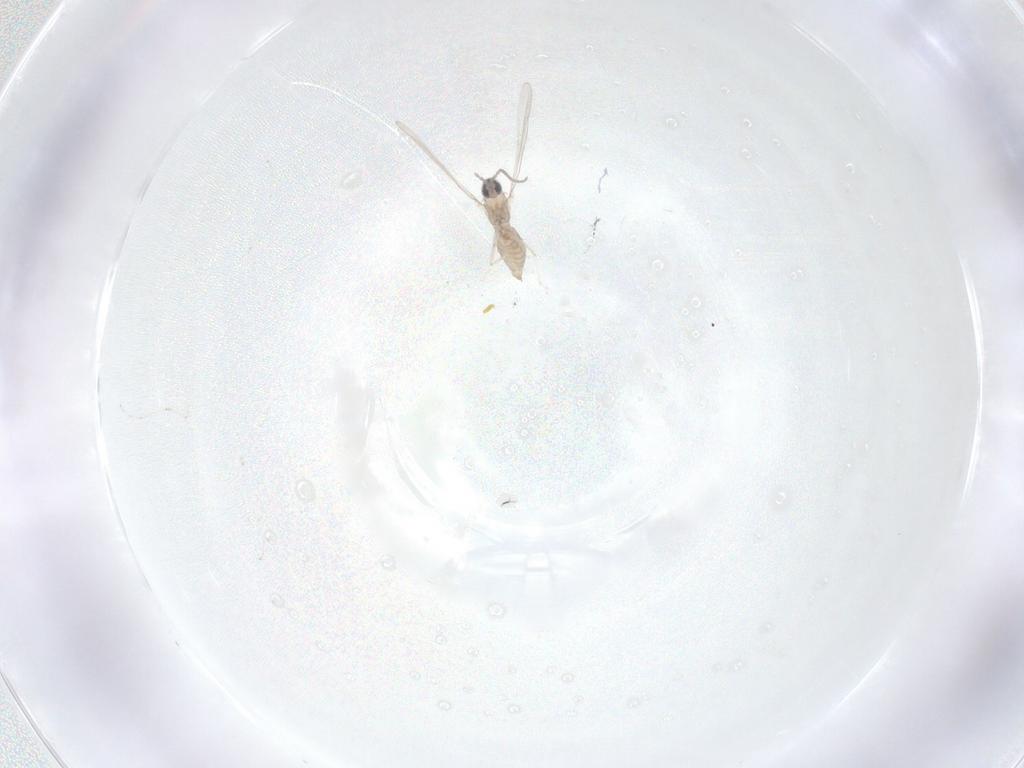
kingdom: Animalia
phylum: Arthropoda
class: Insecta
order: Diptera
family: Cecidomyiidae
